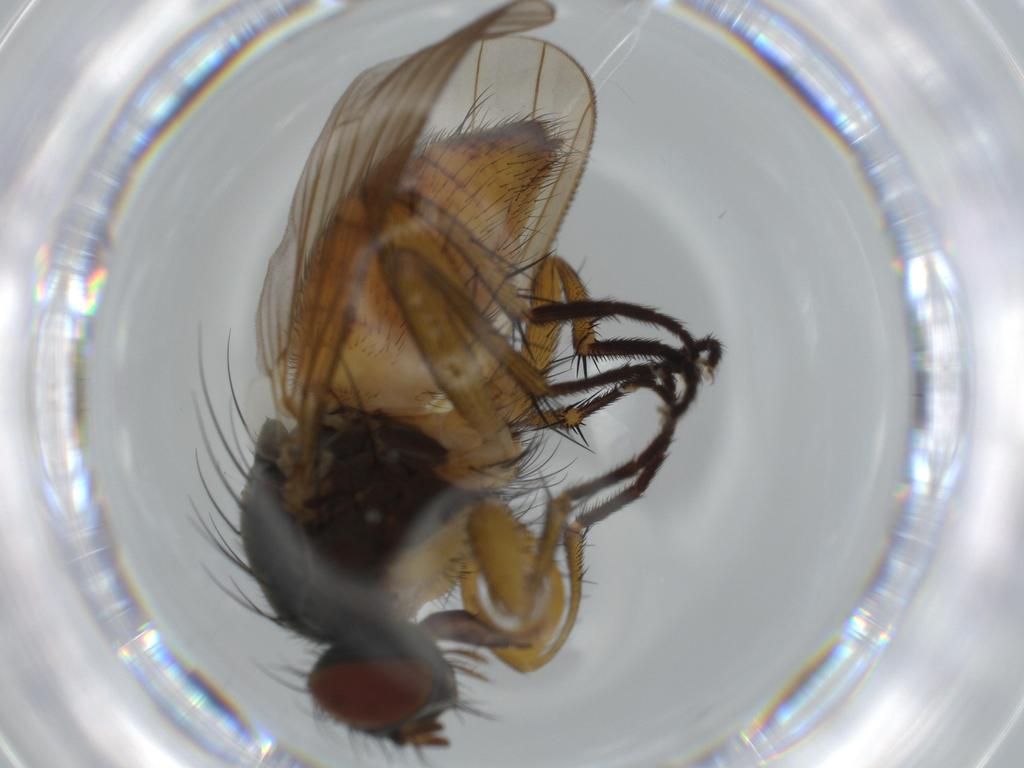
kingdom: Animalia
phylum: Arthropoda
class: Insecta
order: Diptera
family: Muscidae
